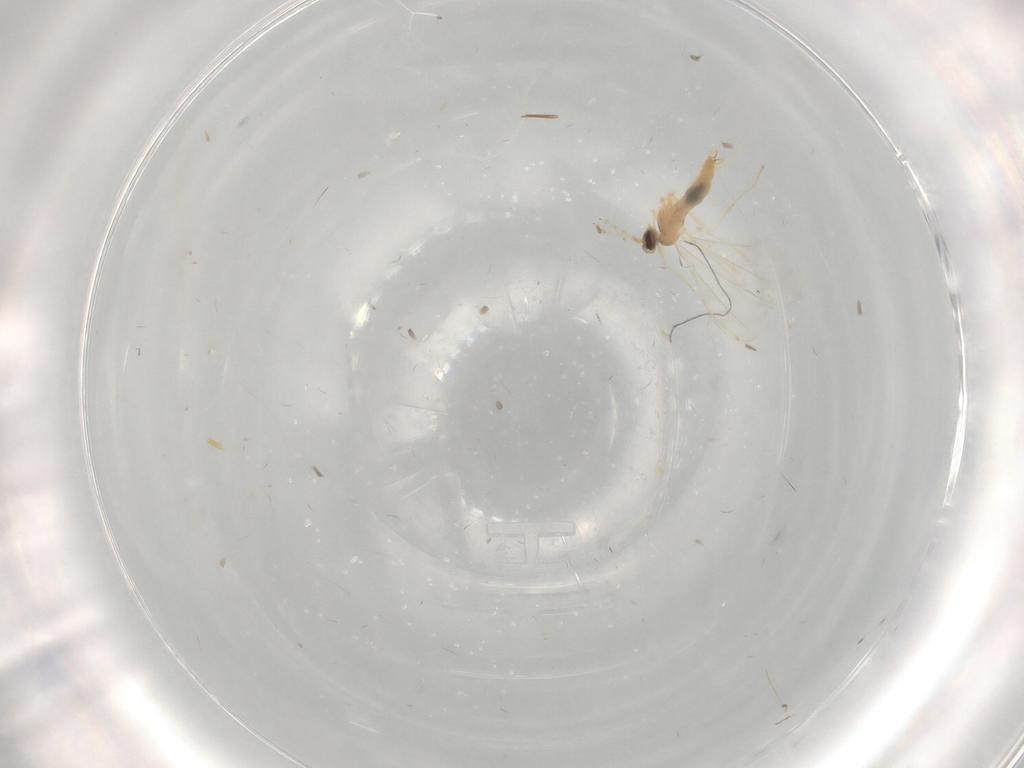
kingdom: Animalia
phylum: Arthropoda
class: Insecta
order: Diptera
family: Cecidomyiidae
